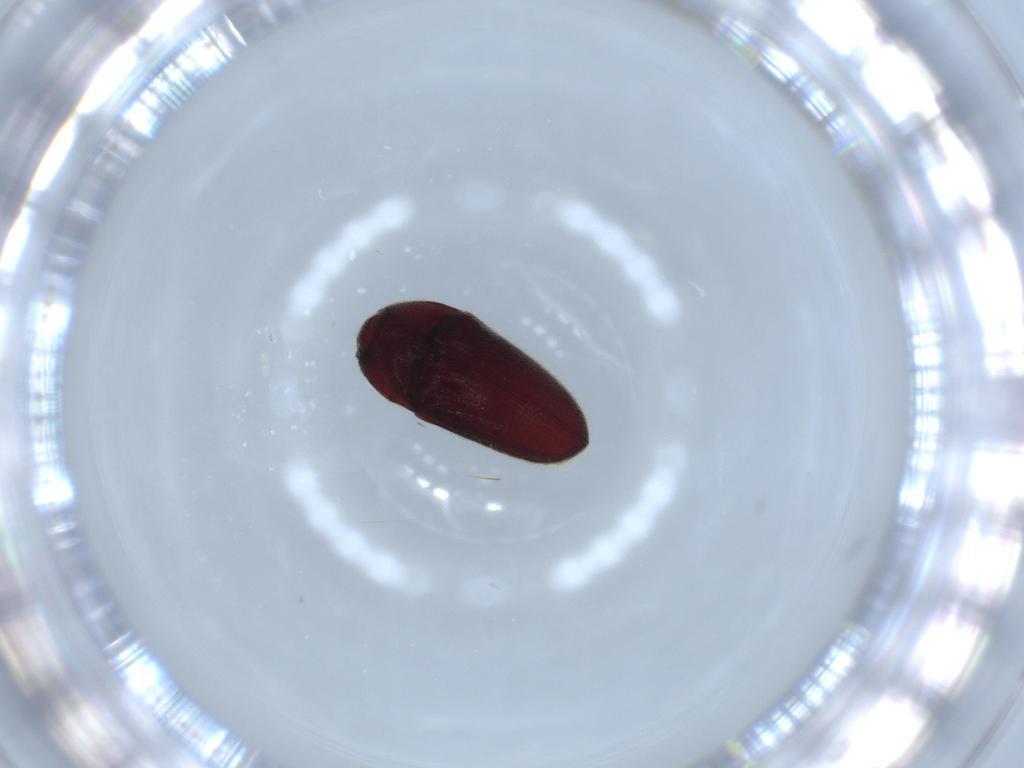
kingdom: Animalia
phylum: Arthropoda
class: Insecta
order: Coleoptera
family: Throscidae
